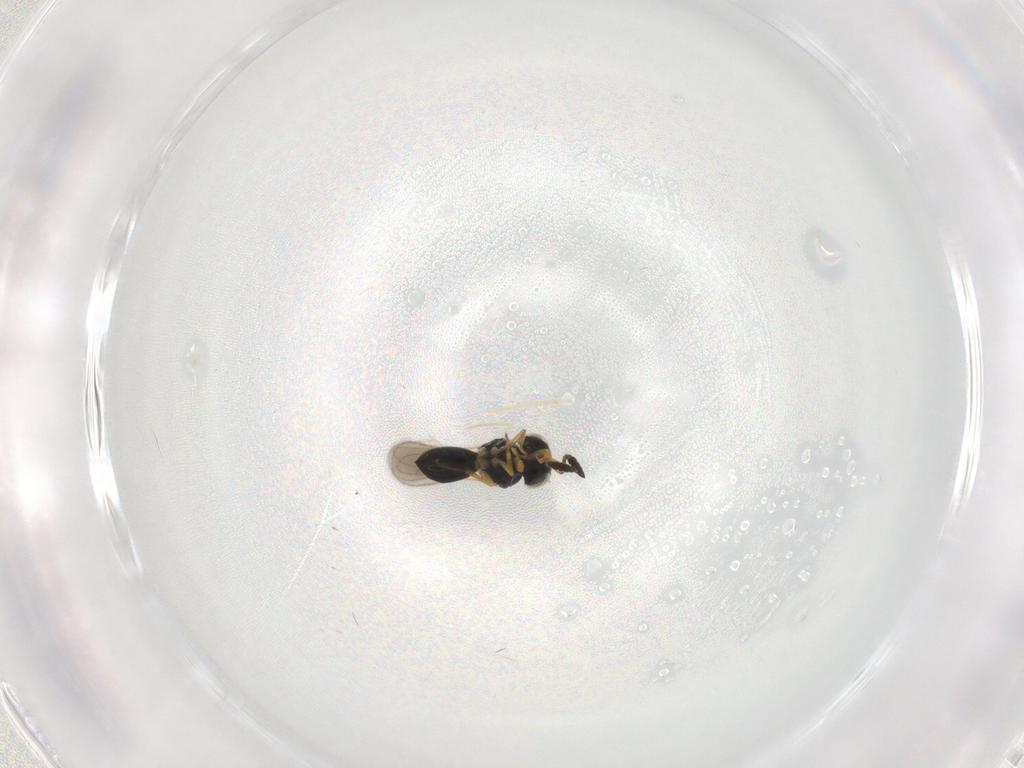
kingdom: Animalia
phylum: Arthropoda
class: Insecta
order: Hymenoptera
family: Scelionidae
